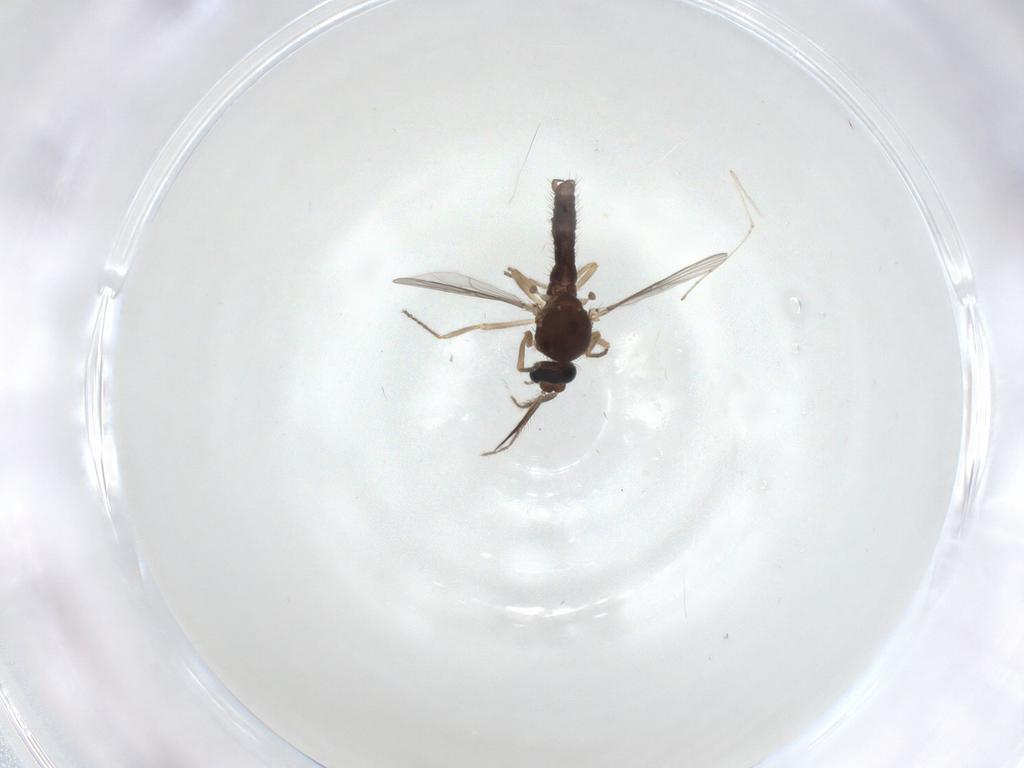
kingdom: Animalia
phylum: Arthropoda
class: Insecta
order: Diptera
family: Ceratopogonidae
